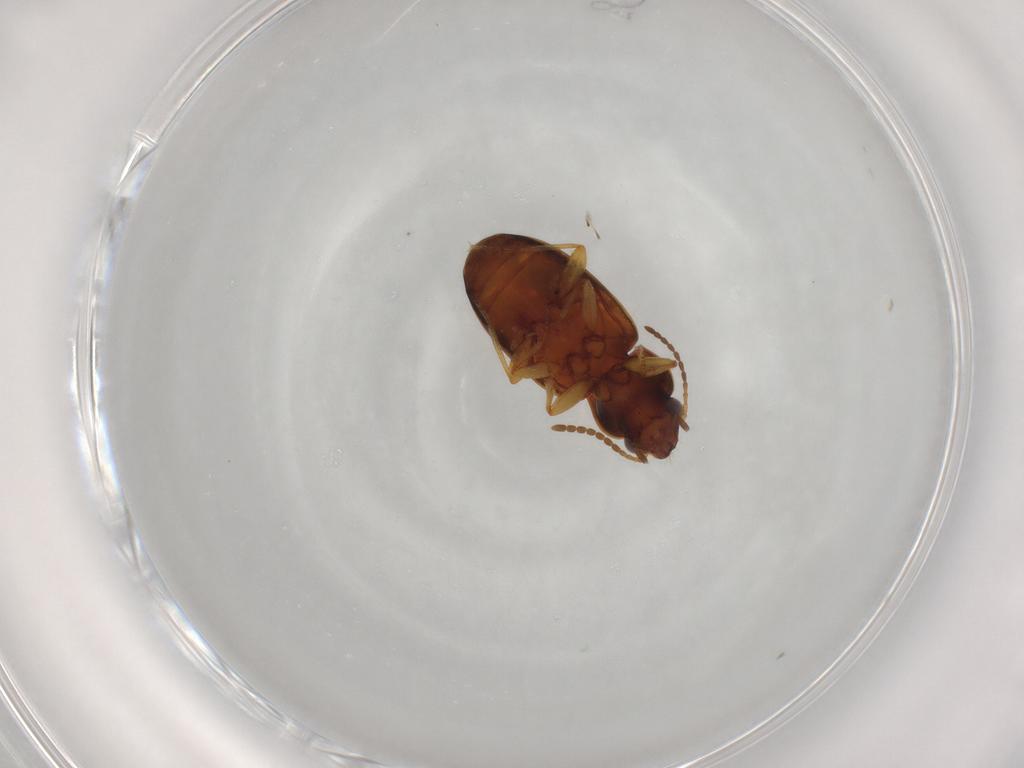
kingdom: Animalia
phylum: Arthropoda
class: Insecta
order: Coleoptera
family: Carabidae
